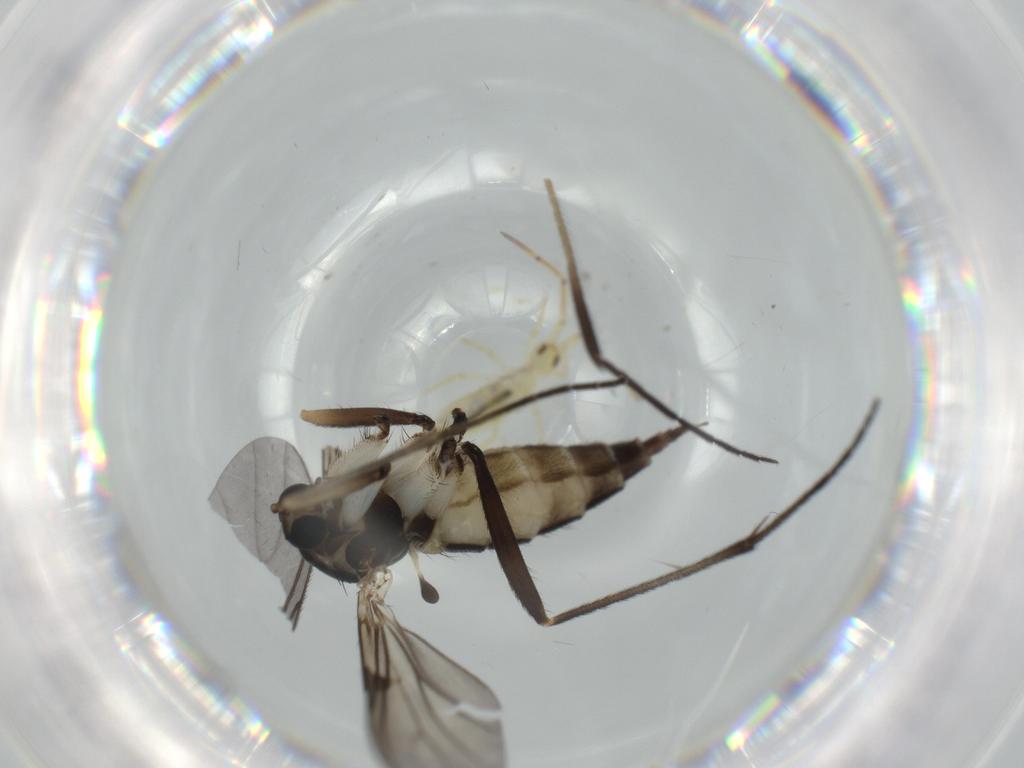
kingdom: Animalia
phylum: Arthropoda
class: Insecta
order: Diptera
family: Sciaridae
